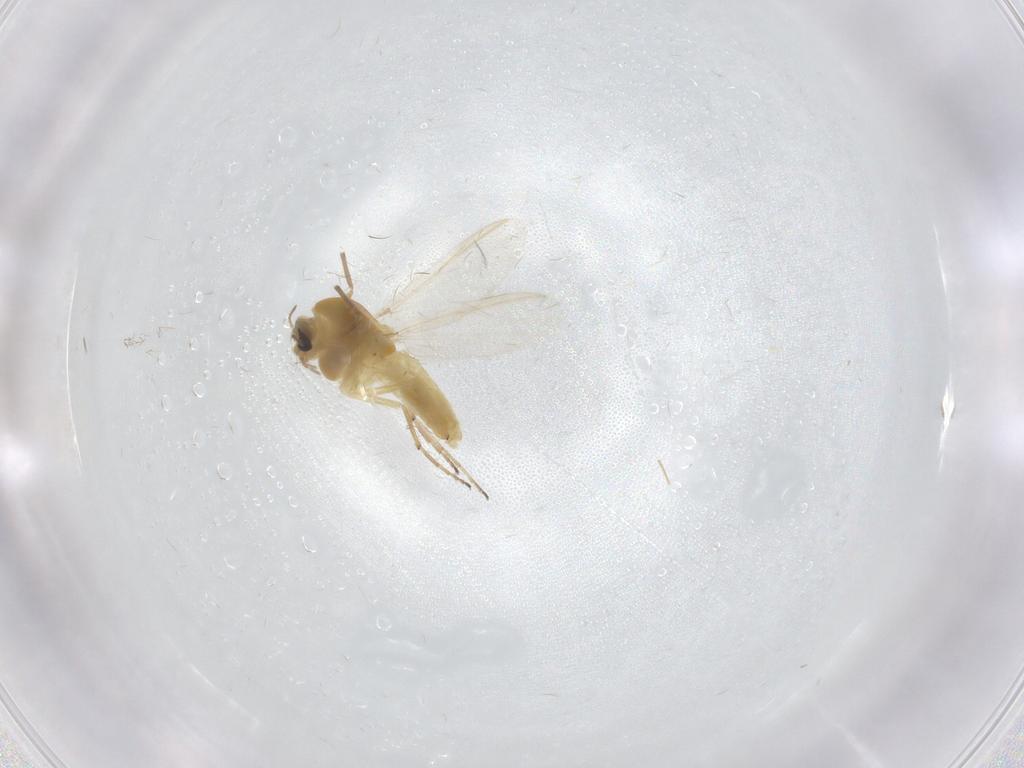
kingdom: Animalia
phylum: Arthropoda
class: Insecta
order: Diptera
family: Chironomidae
